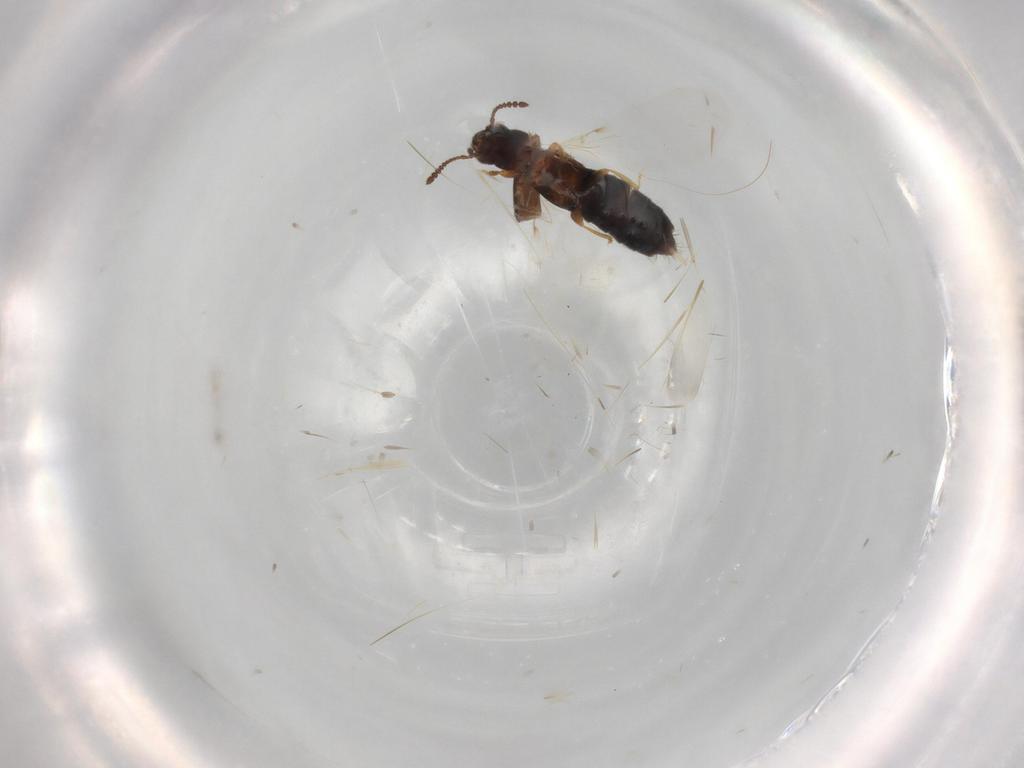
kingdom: Animalia
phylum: Arthropoda
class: Insecta
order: Coleoptera
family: Staphylinidae
